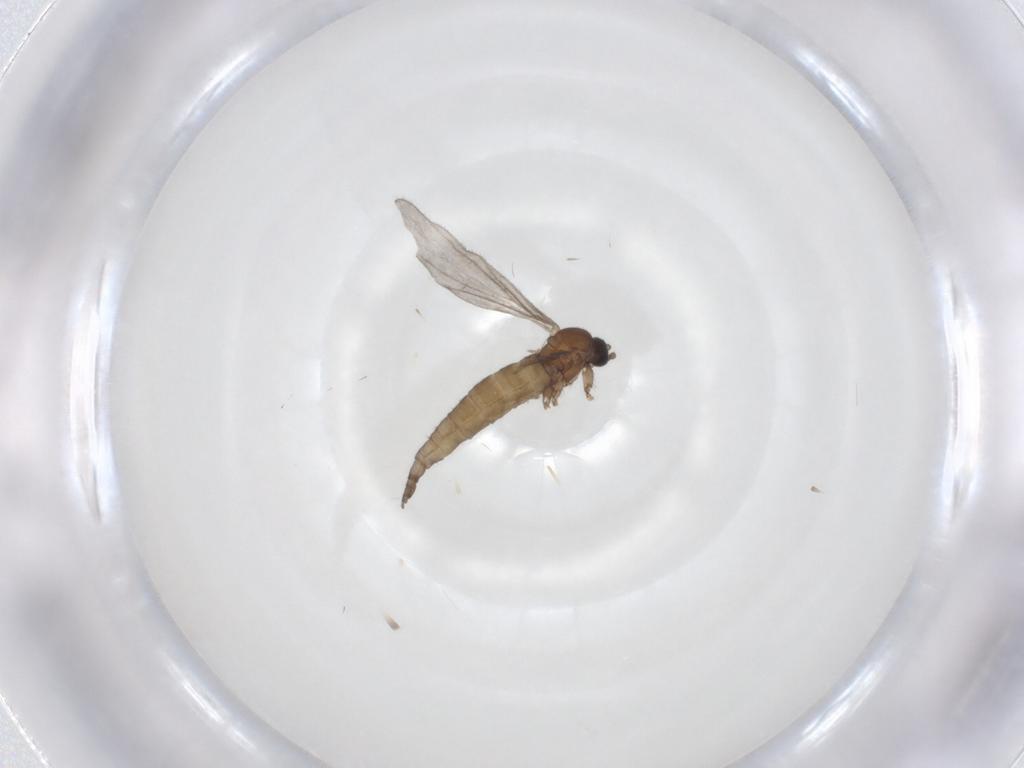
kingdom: Animalia
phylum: Arthropoda
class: Insecta
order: Diptera
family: Sciaridae
